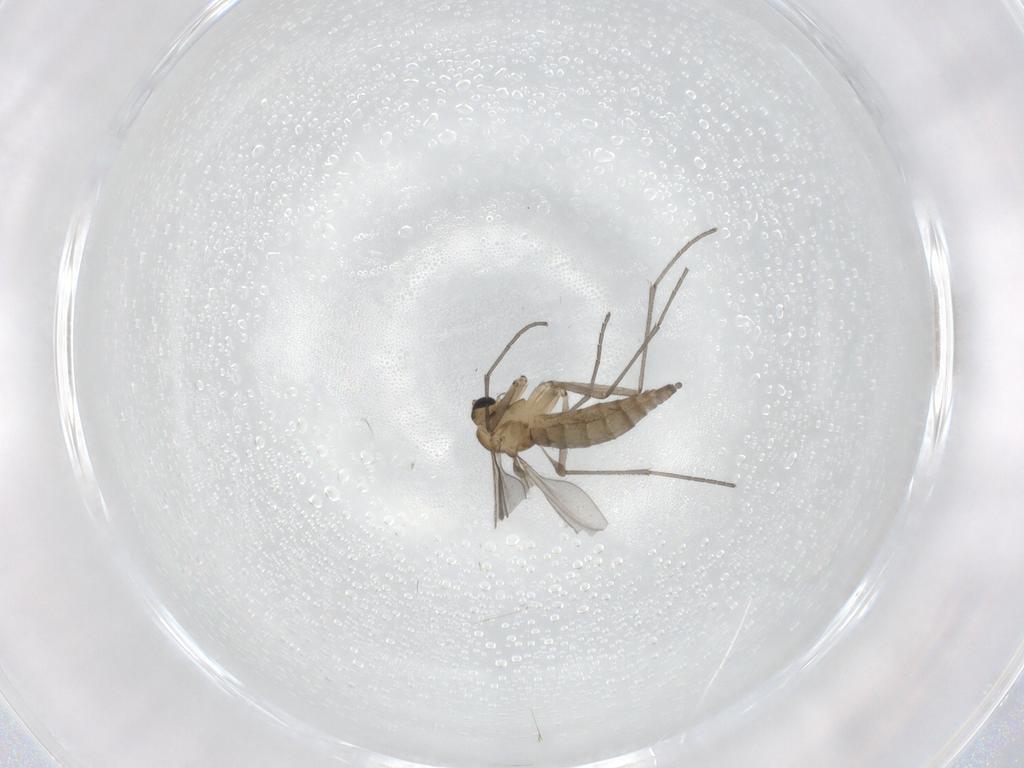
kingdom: Animalia
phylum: Arthropoda
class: Insecta
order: Diptera
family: Sciaridae
